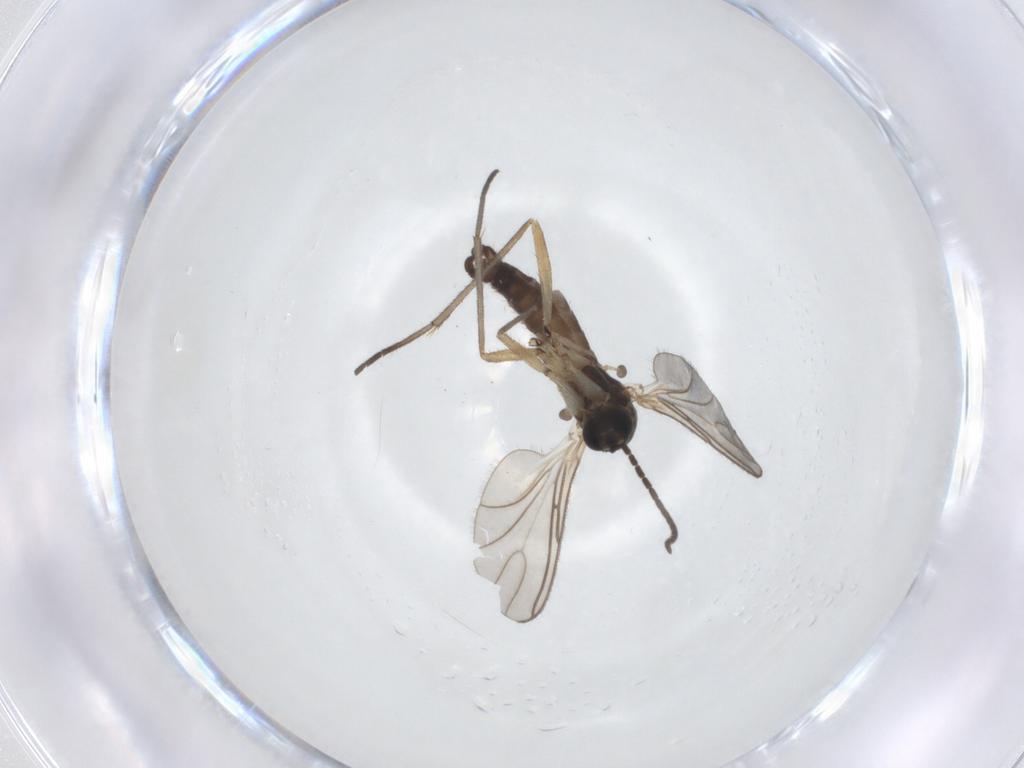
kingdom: Animalia
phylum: Arthropoda
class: Insecta
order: Diptera
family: Sciaridae
